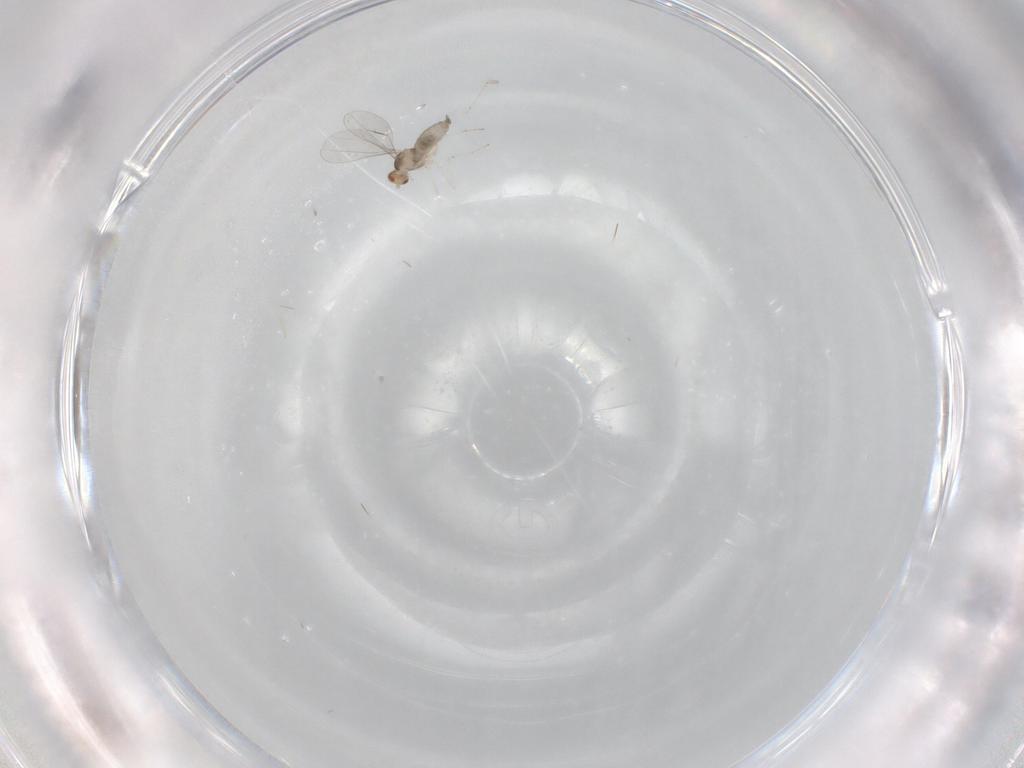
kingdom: Animalia
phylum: Arthropoda
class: Insecta
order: Diptera
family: Cecidomyiidae
